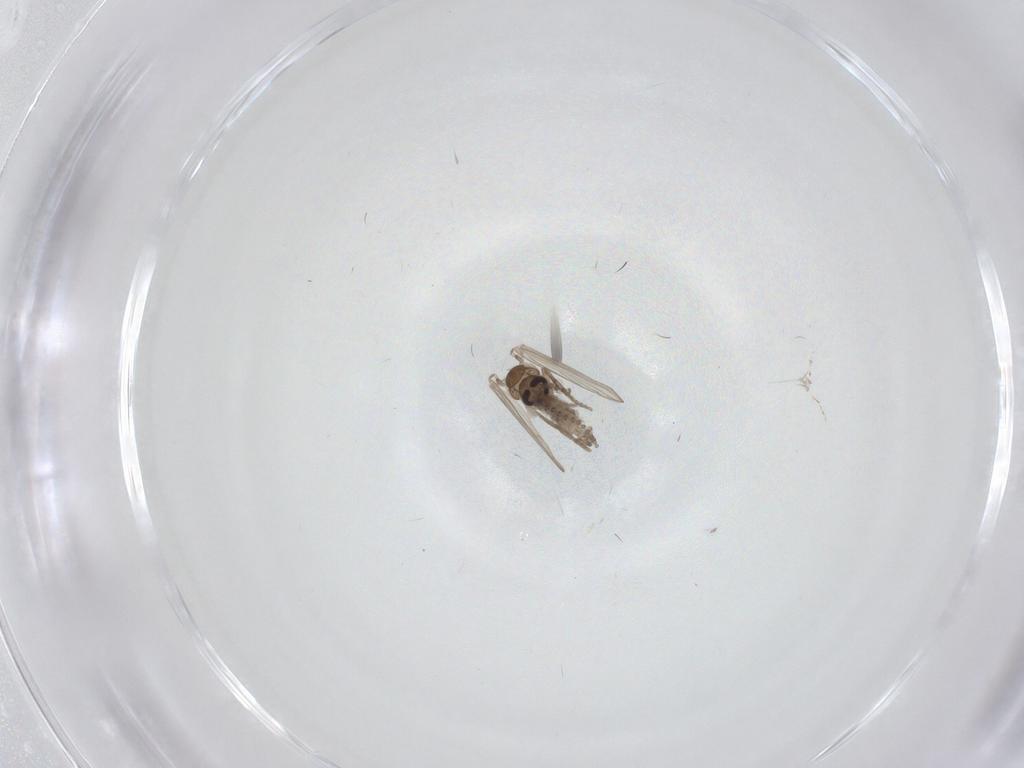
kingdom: Animalia
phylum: Arthropoda
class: Insecta
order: Diptera
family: Psychodidae
